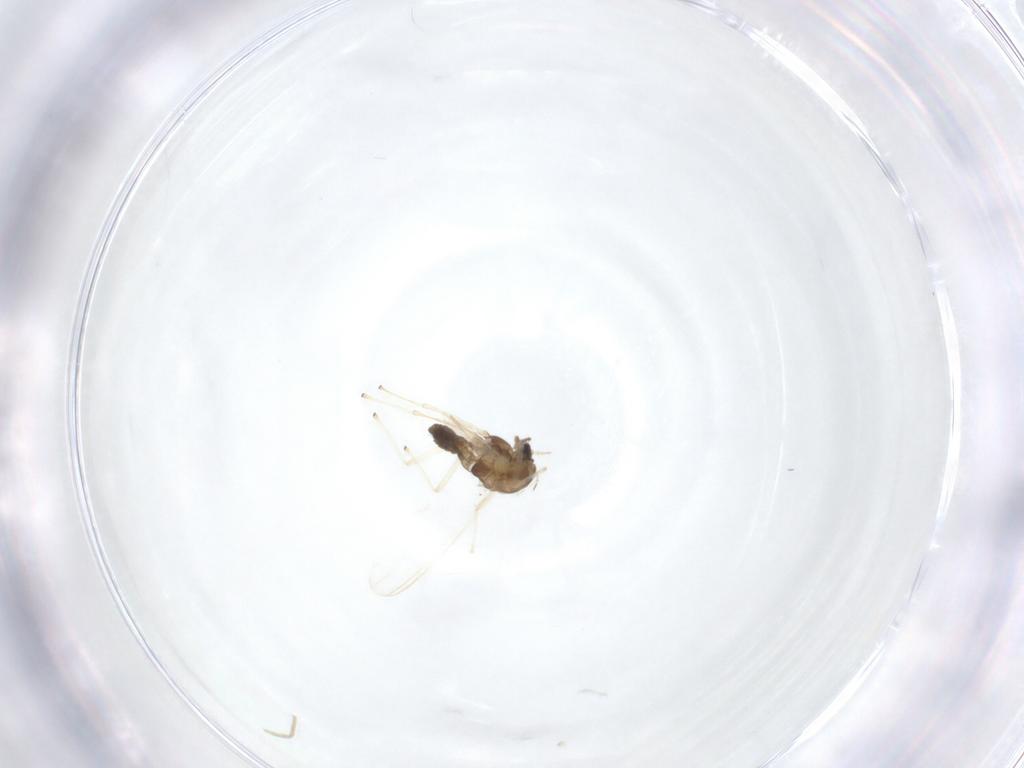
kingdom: Animalia
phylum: Arthropoda
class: Insecta
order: Diptera
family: Chironomidae
